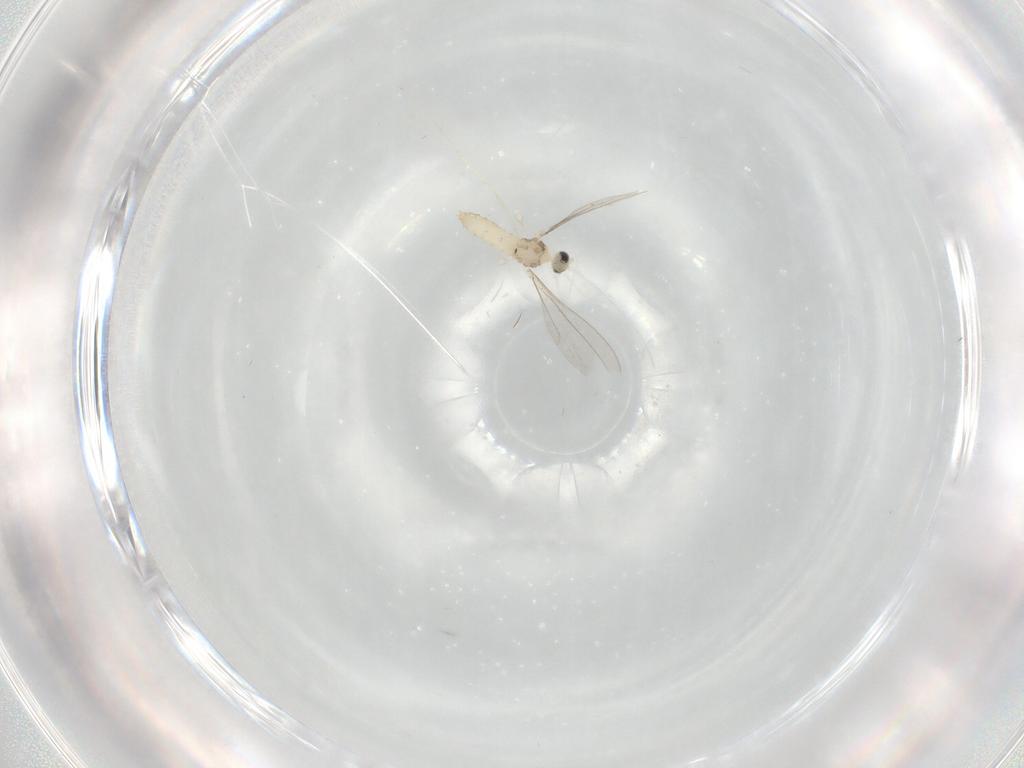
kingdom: Animalia
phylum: Arthropoda
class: Insecta
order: Diptera
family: Cecidomyiidae
